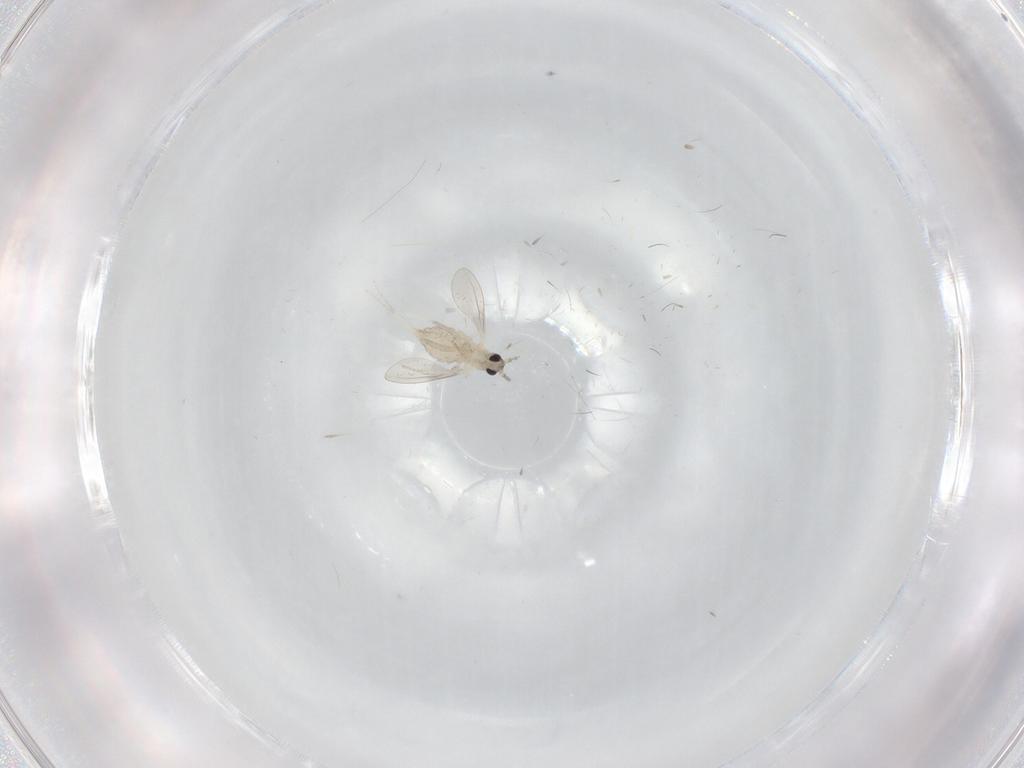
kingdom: Animalia
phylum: Arthropoda
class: Insecta
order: Diptera
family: Cecidomyiidae
